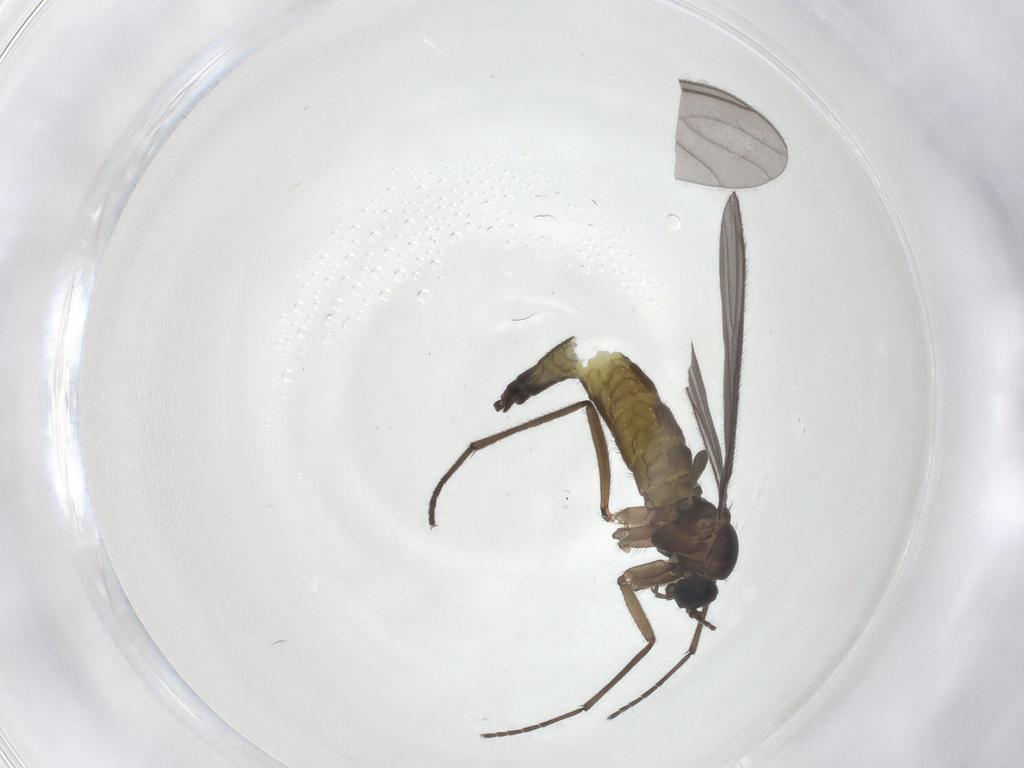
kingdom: Animalia
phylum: Arthropoda
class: Insecta
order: Diptera
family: Sciaridae
